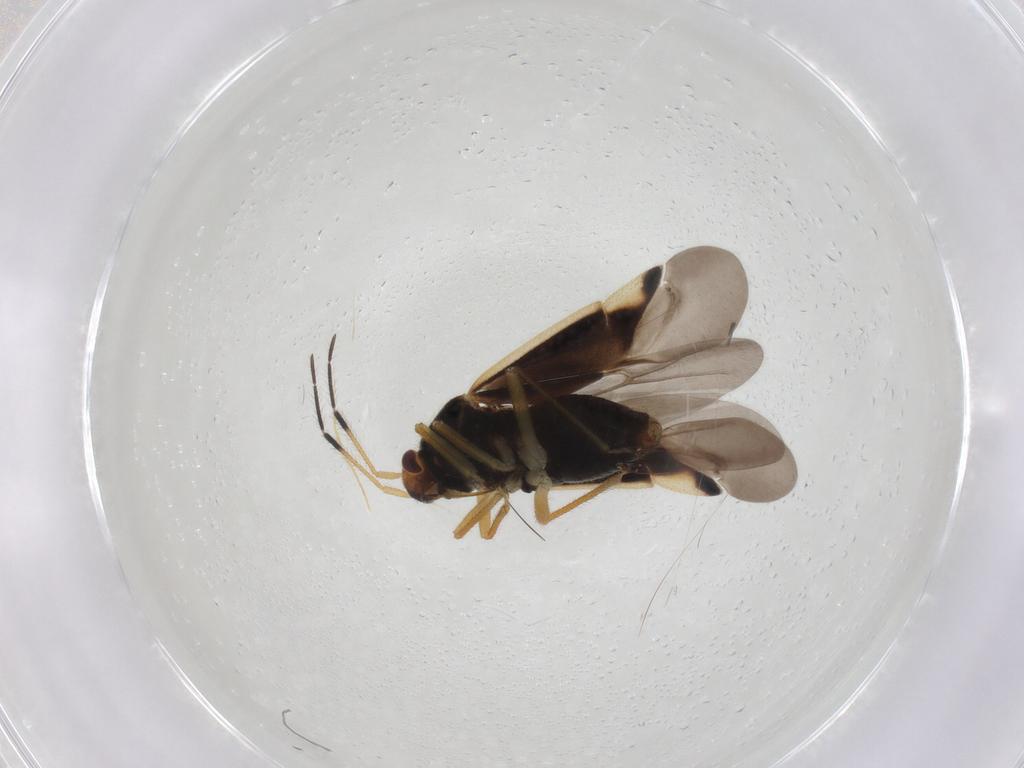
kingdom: Animalia
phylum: Arthropoda
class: Insecta
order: Hemiptera
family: Miridae
